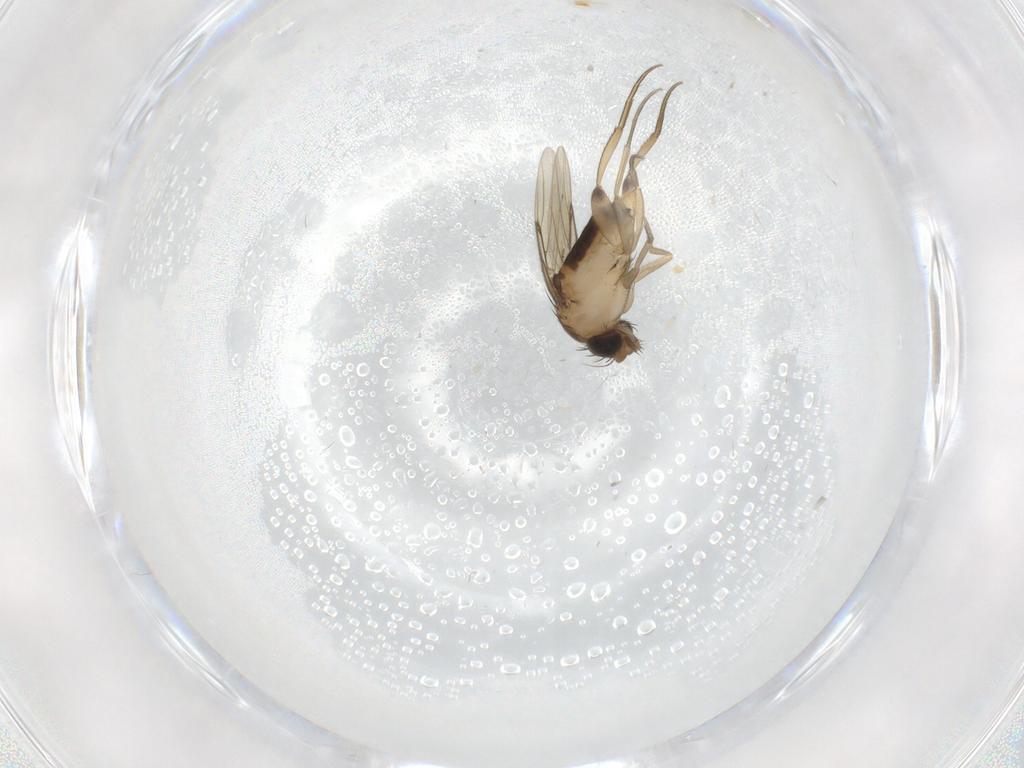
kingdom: Animalia
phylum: Arthropoda
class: Insecta
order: Diptera
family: Phoridae
